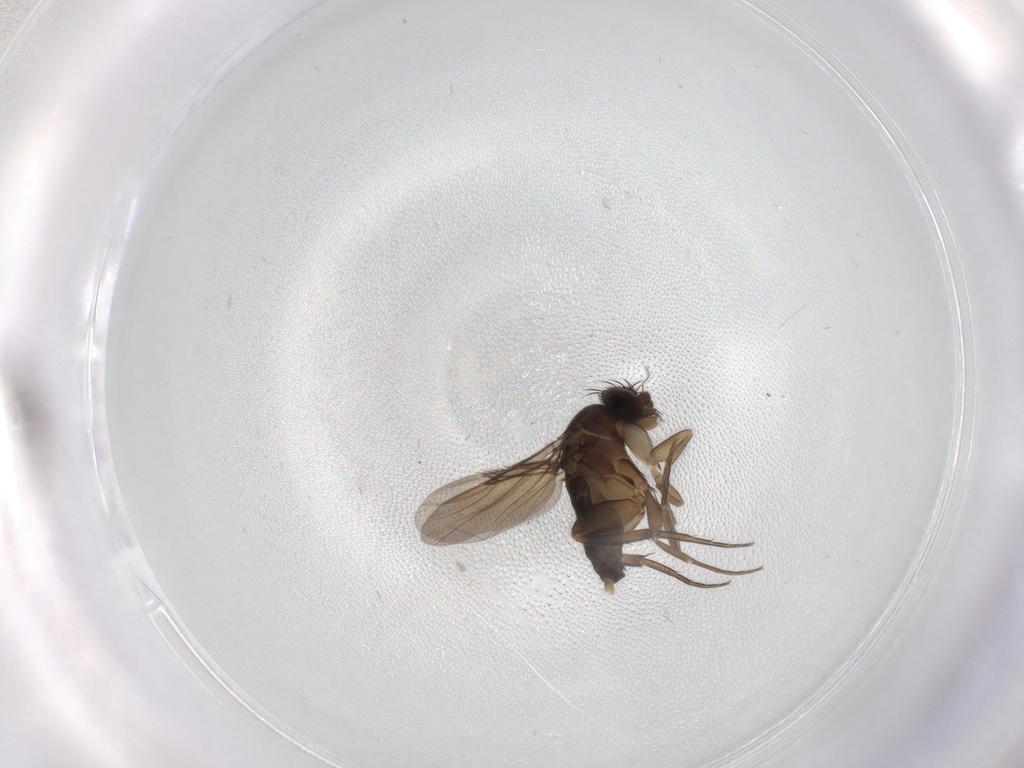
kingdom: Animalia
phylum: Arthropoda
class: Insecta
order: Diptera
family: Phoridae
